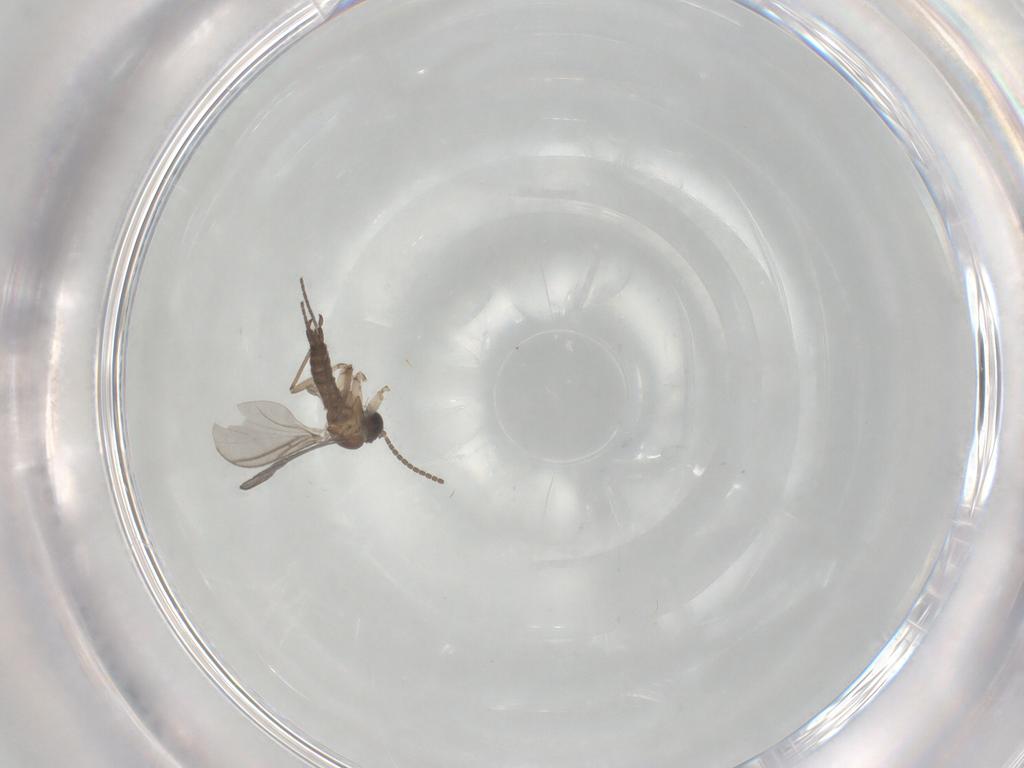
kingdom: Animalia
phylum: Arthropoda
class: Insecta
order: Diptera
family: Sciaridae
